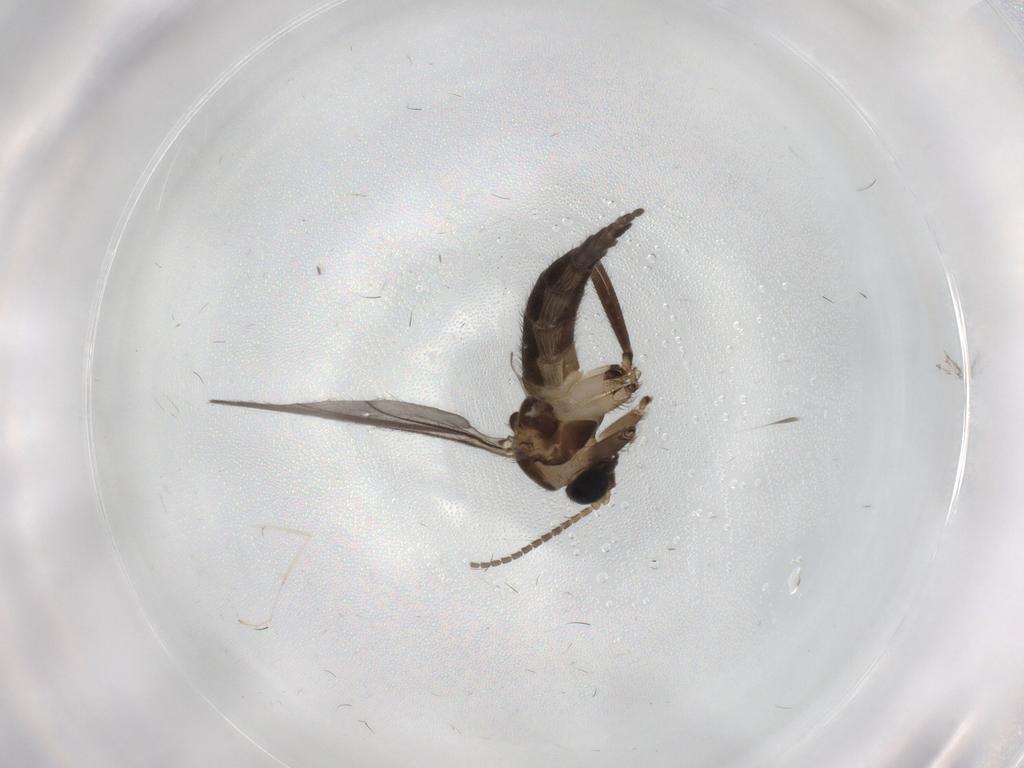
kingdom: Animalia
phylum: Arthropoda
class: Insecta
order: Diptera
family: Sciaridae
